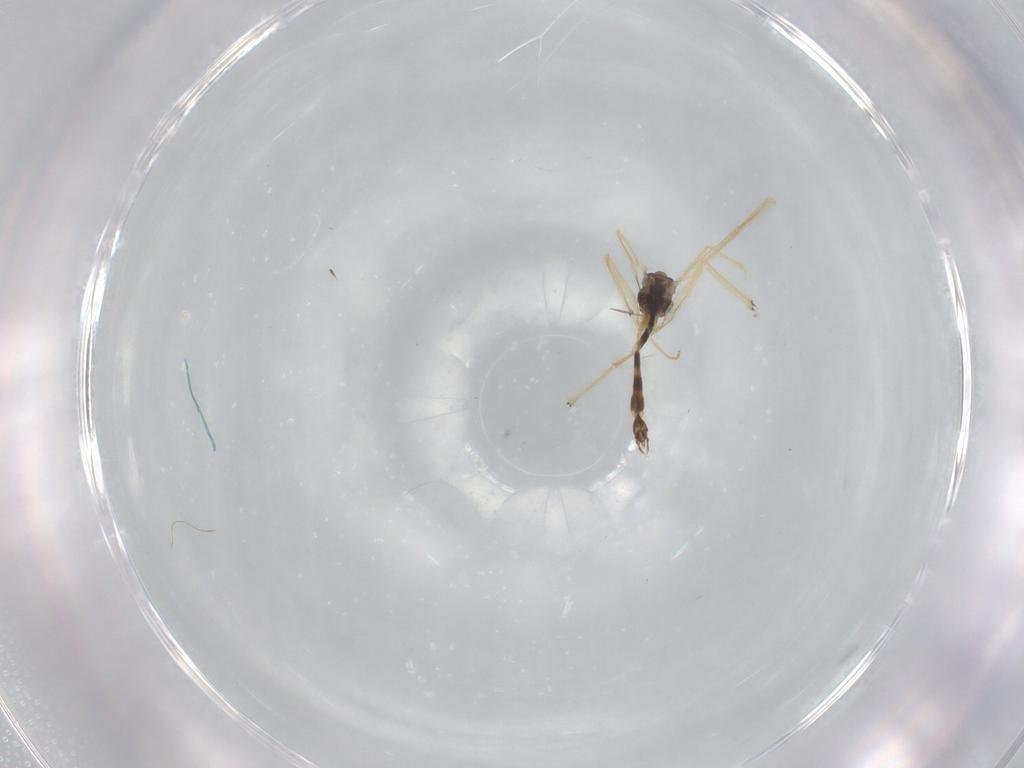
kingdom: Animalia
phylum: Arthropoda
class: Insecta
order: Diptera
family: Chironomidae
